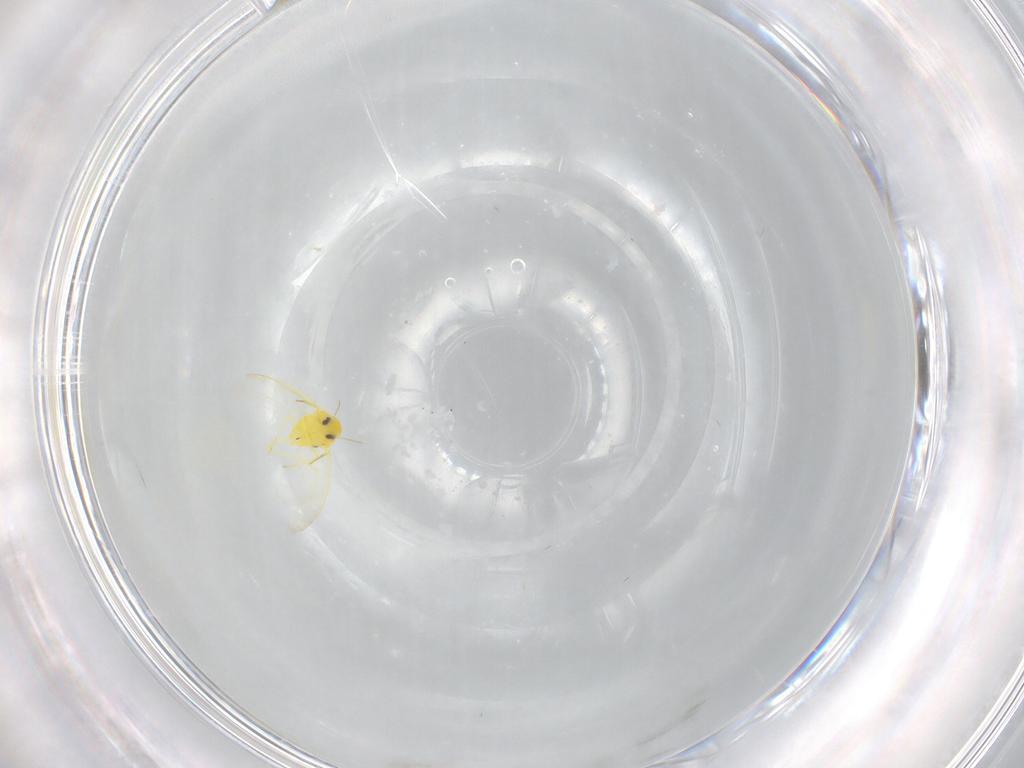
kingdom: Animalia
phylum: Arthropoda
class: Insecta
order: Hemiptera
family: Aleyrodidae
